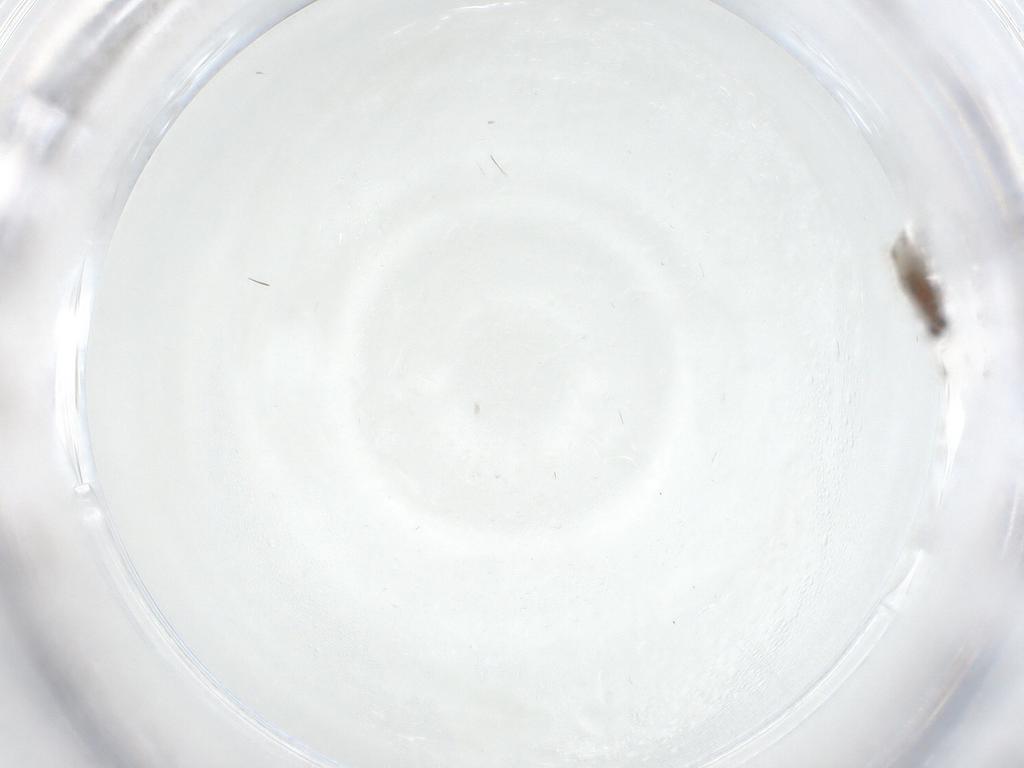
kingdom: Animalia
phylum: Arthropoda
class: Insecta
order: Diptera
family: Chironomidae
